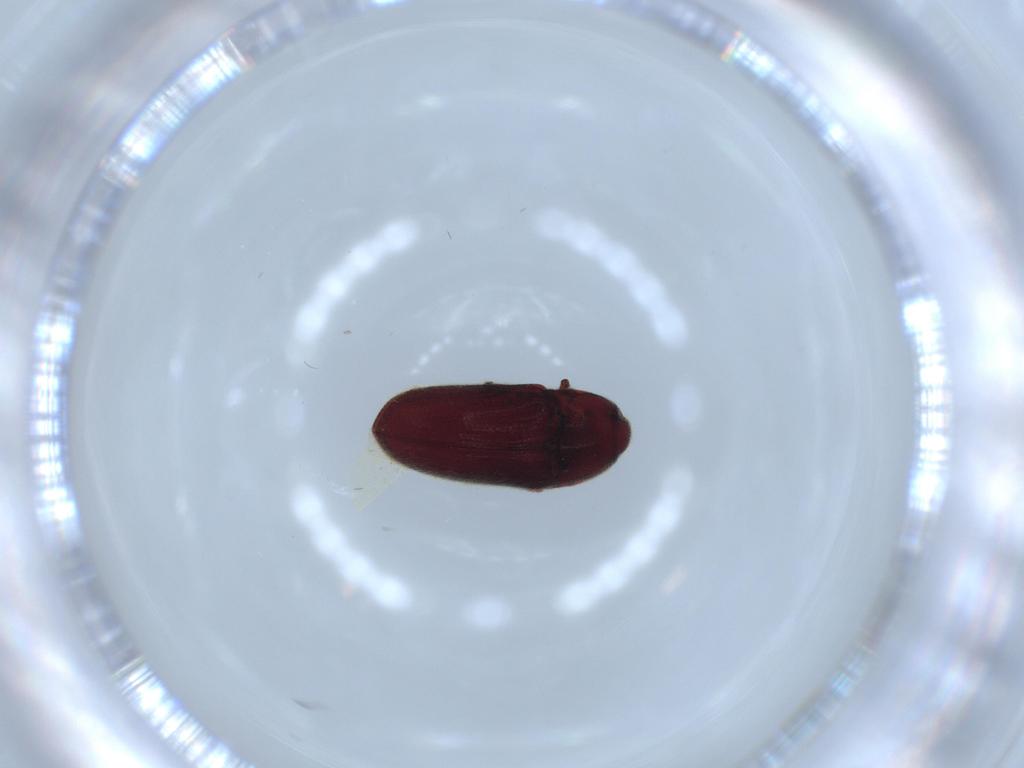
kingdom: Animalia
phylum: Arthropoda
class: Insecta
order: Coleoptera
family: Throscidae
